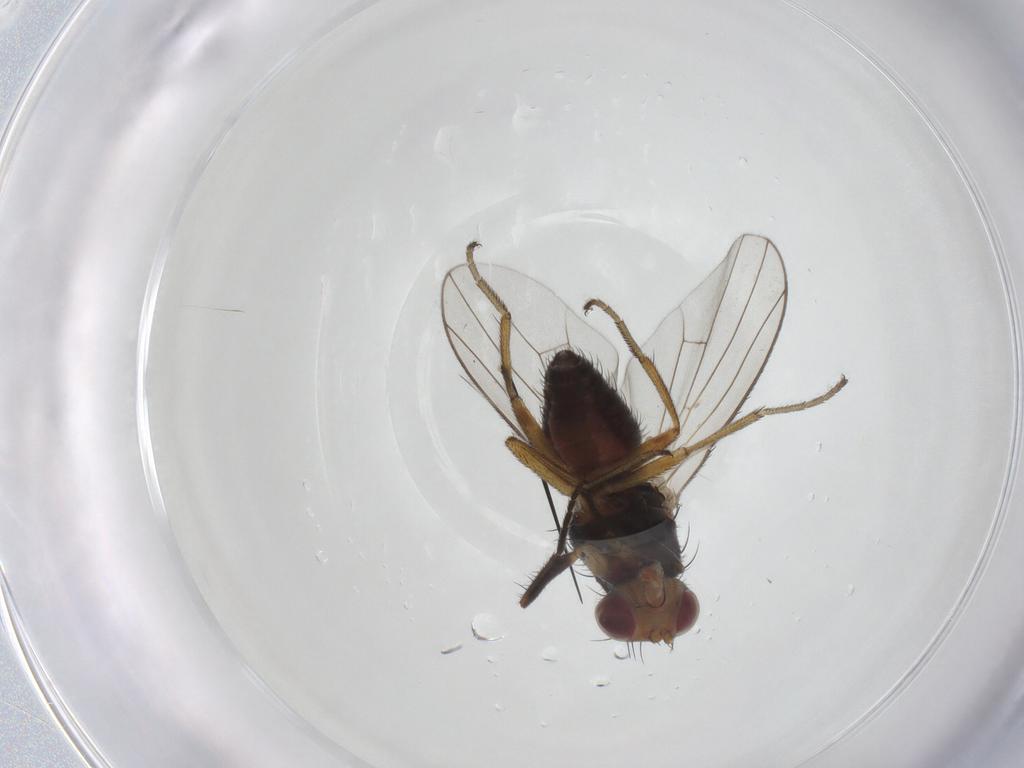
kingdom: Animalia
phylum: Arthropoda
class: Insecta
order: Diptera
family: Heleomyzidae
